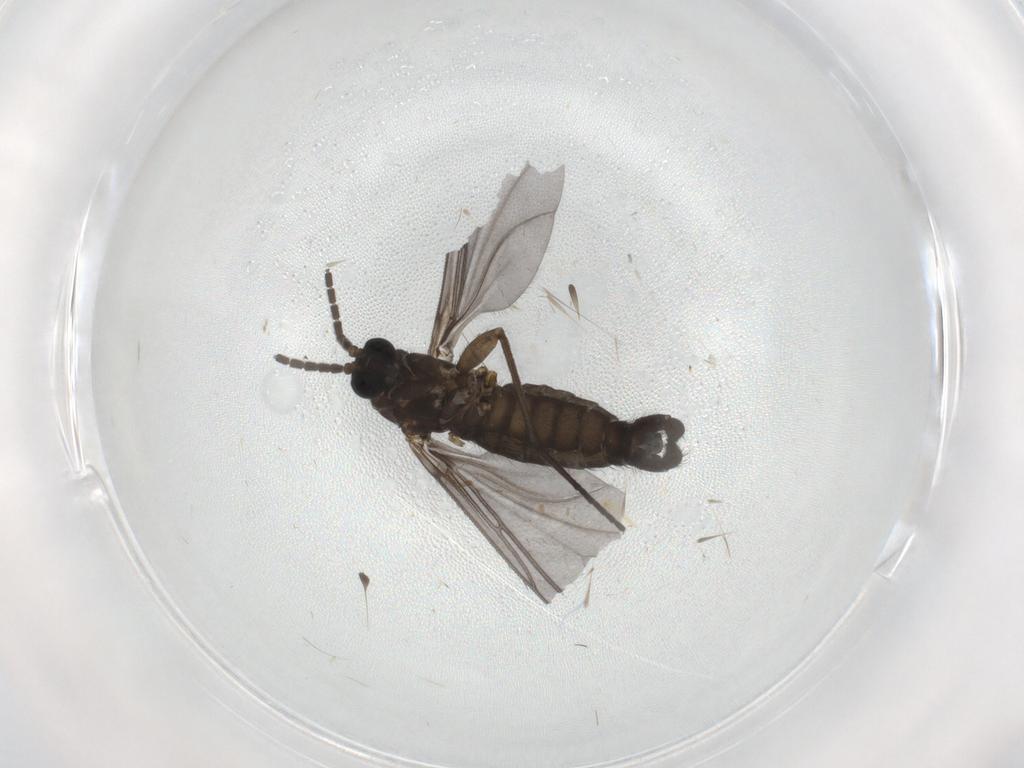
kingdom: Animalia
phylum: Arthropoda
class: Insecta
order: Diptera
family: Sciaridae
